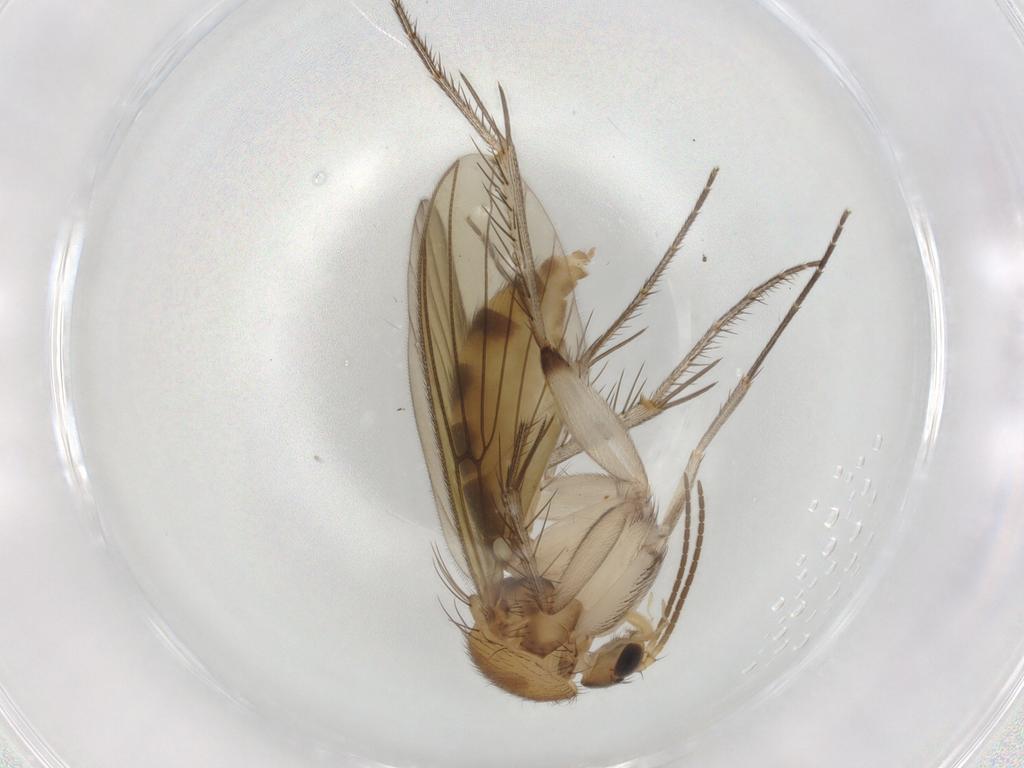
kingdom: Animalia
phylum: Arthropoda
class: Insecta
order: Diptera
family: Mycetophilidae
